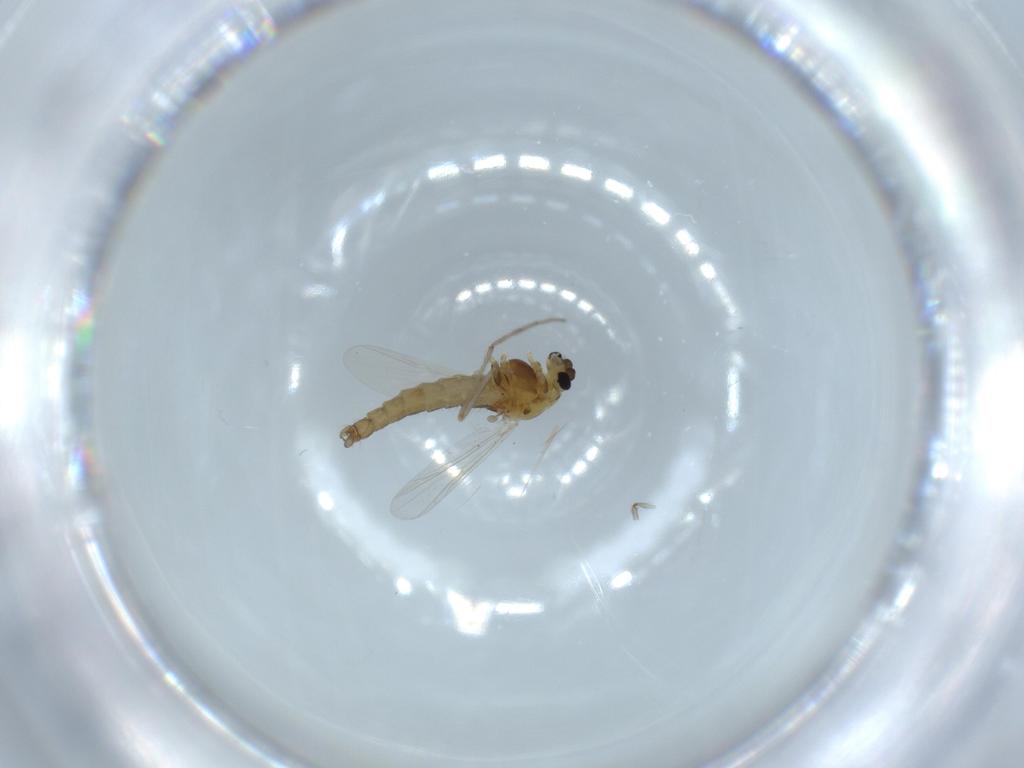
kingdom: Animalia
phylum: Arthropoda
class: Insecta
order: Diptera
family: Chironomidae
